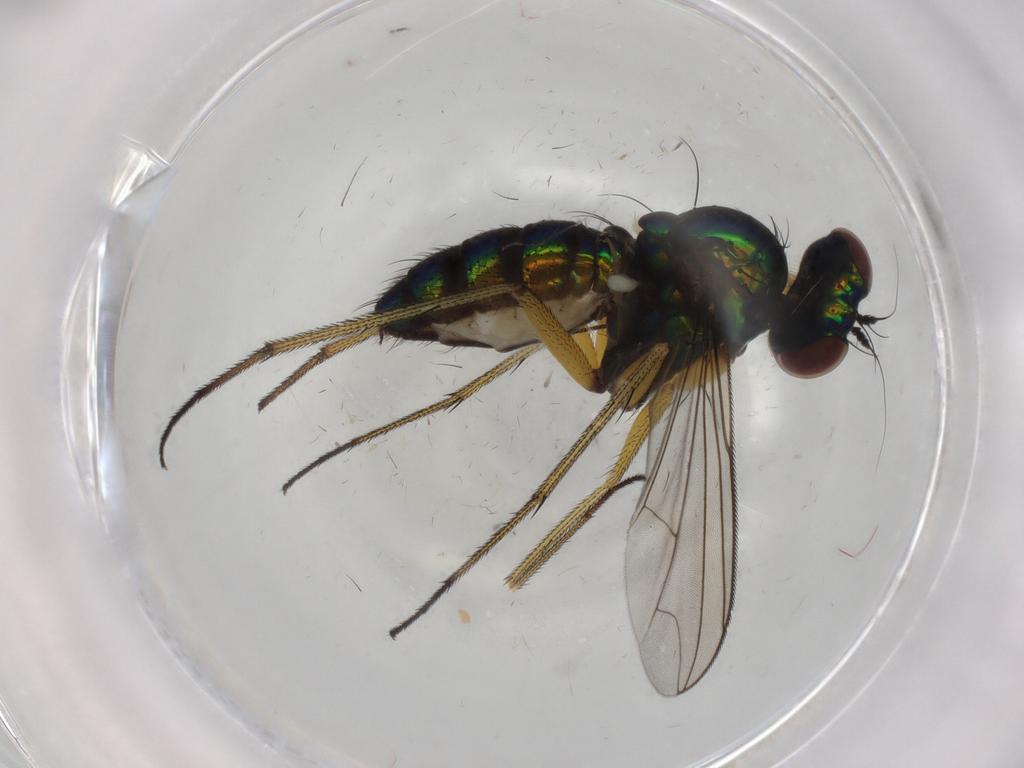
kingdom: Animalia
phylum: Arthropoda
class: Insecta
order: Diptera
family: Dolichopodidae
